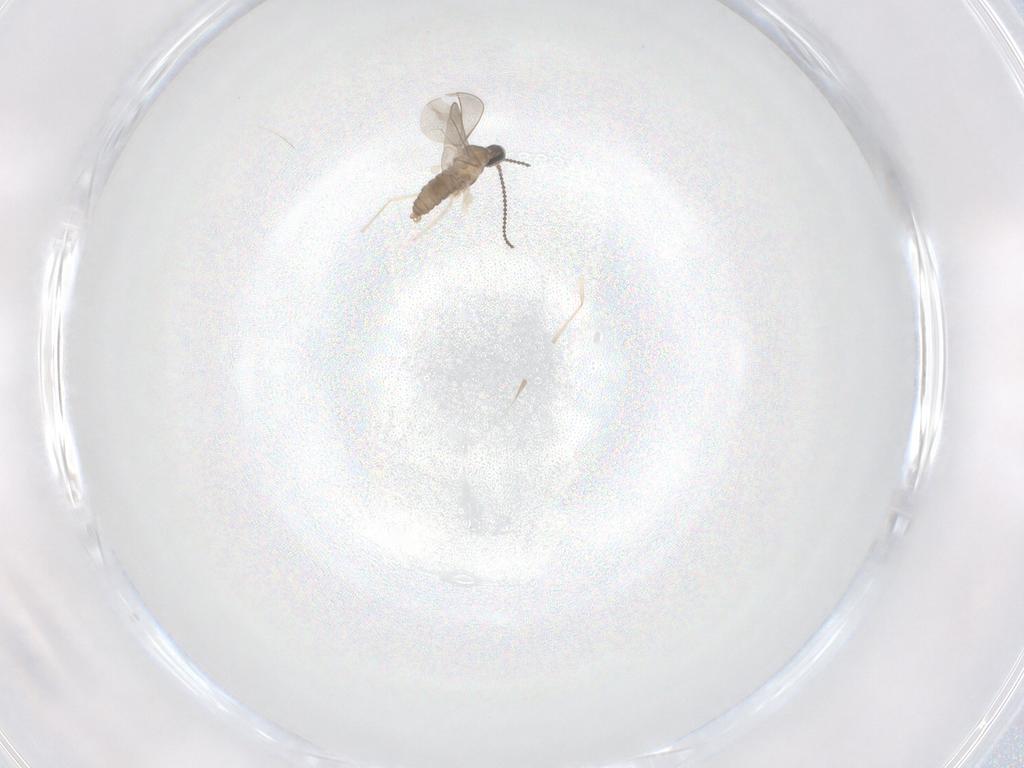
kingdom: Animalia
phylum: Arthropoda
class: Insecta
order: Diptera
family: Cecidomyiidae
